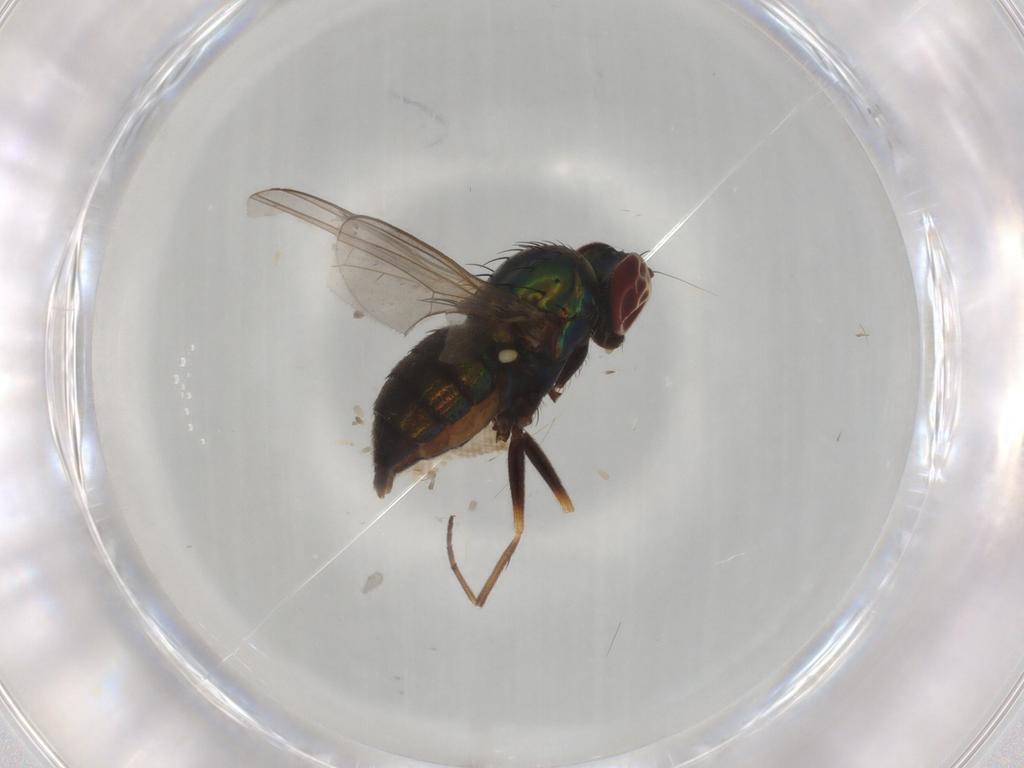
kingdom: Animalia
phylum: Arthropoda
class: Insecta
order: Diptera
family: Dolichopodidae
